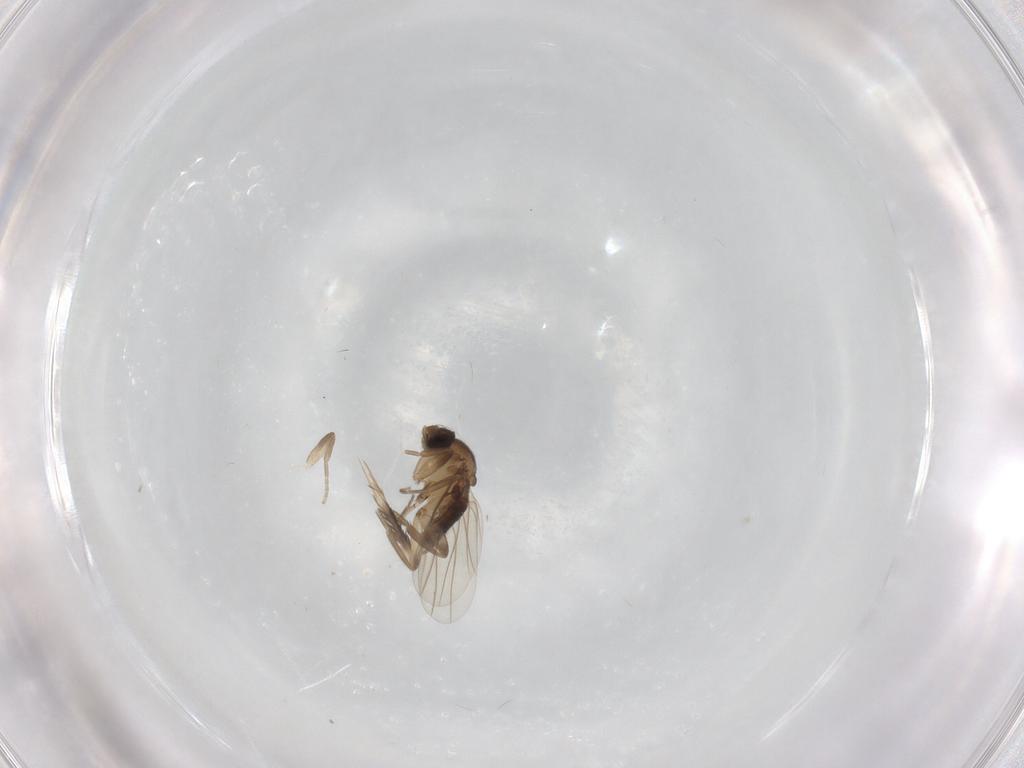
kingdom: Animalia
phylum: Arthropoda
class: Insecta
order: Diptera
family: Phoridae
